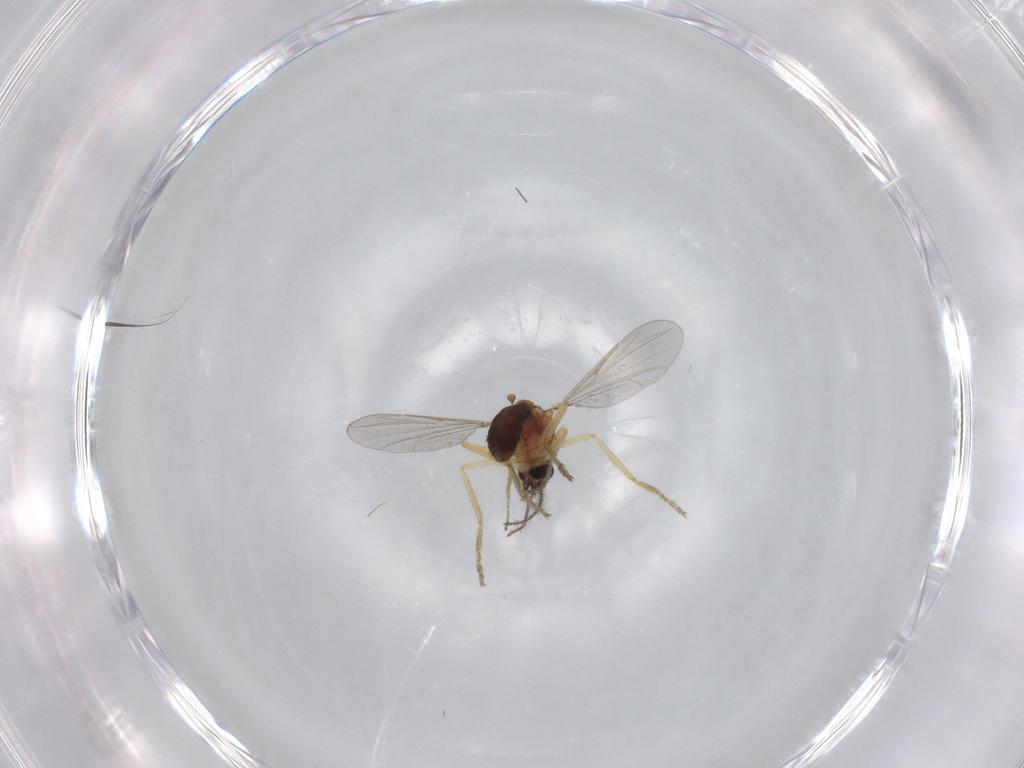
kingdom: Animalia
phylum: Arthropoda
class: Insecta
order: Diptera
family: Ceratopogonidae
